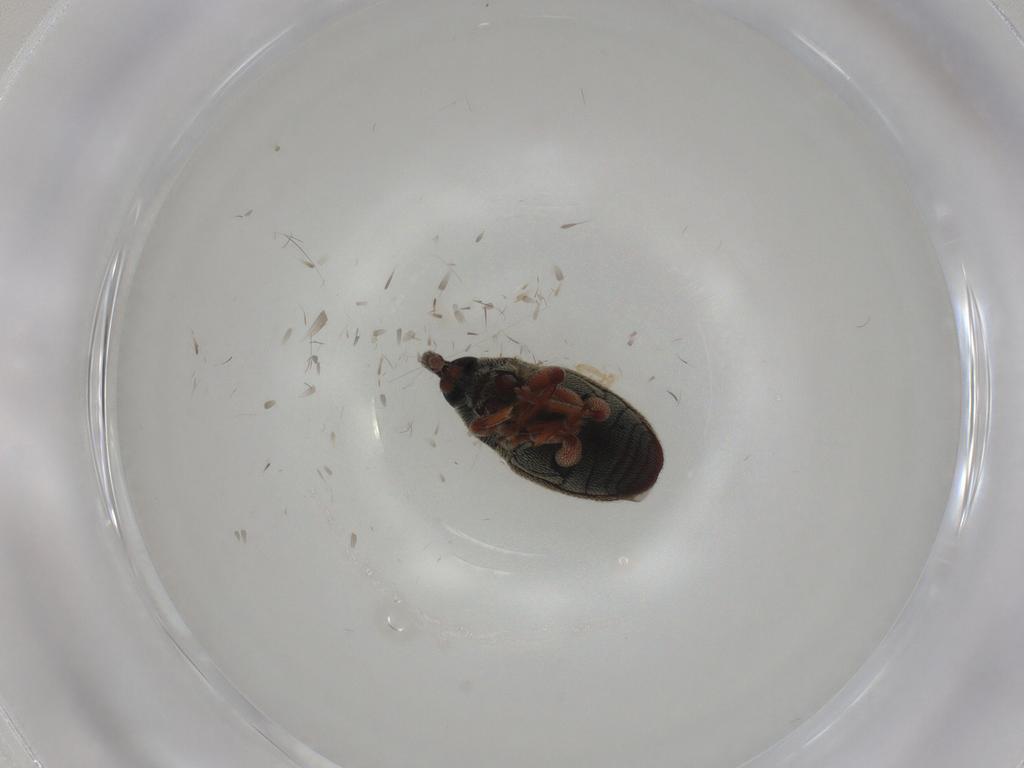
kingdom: Animalia
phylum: Arthropoda
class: Insecta
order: Coleoptera
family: Curculionidae
